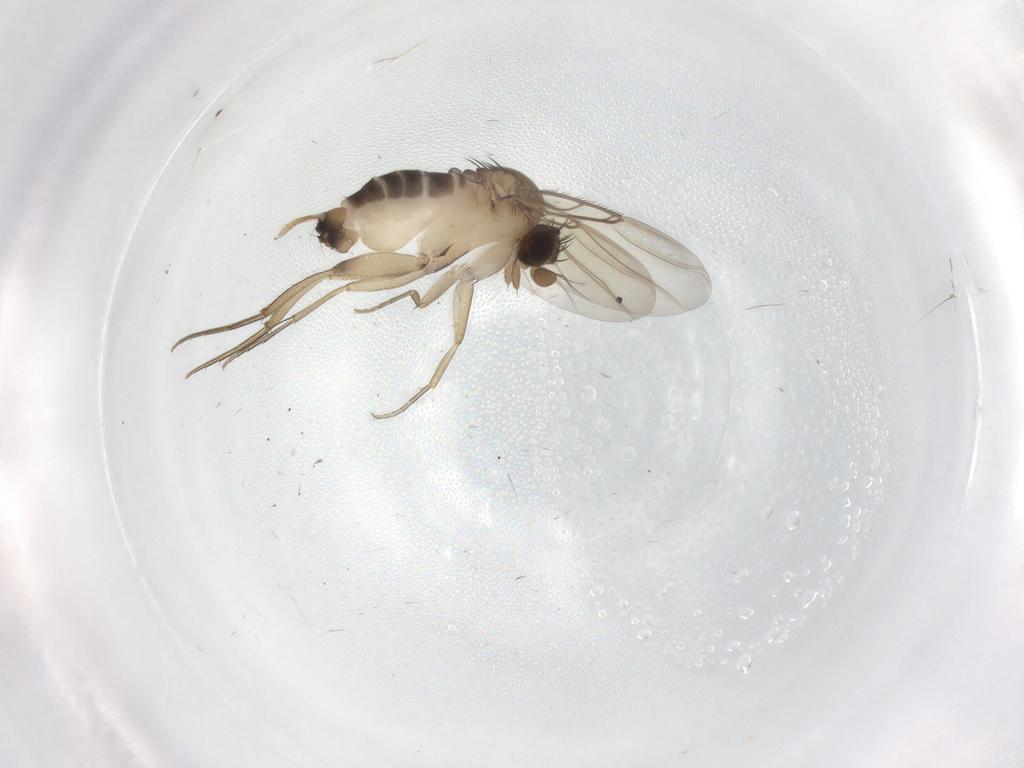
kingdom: Animalia
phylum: Arthropoda
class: Insecta
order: Diptera
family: Phoridae
